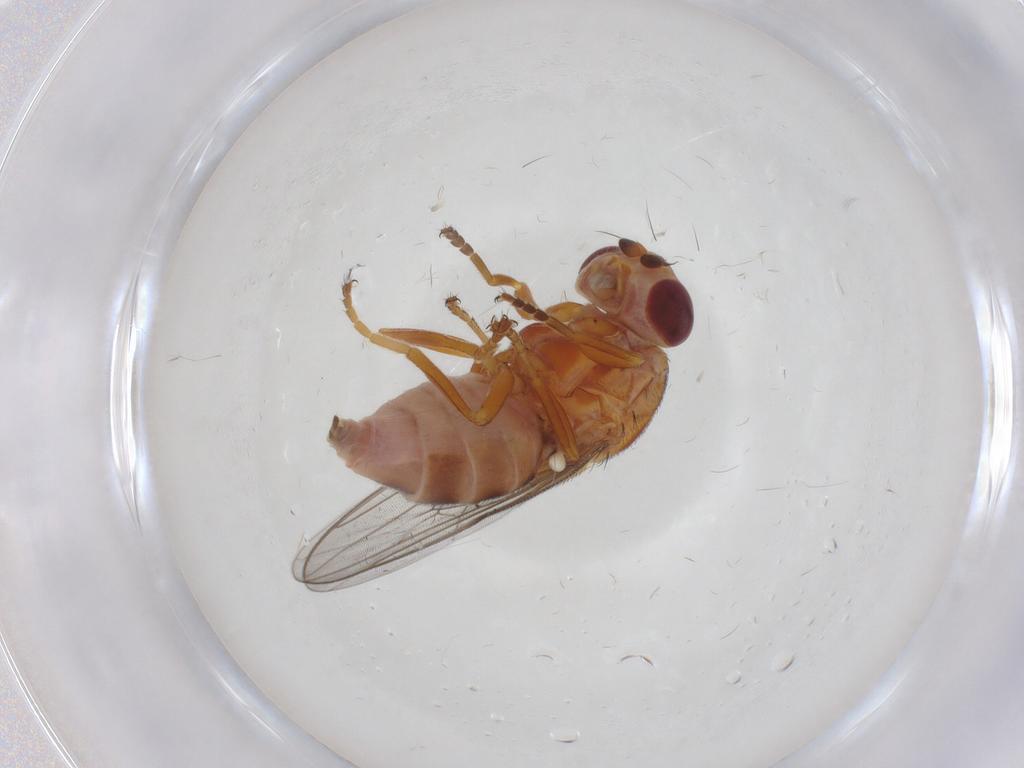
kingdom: Animalia
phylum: Arthropoda
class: Insecta
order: Diptera
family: Chloropidae
